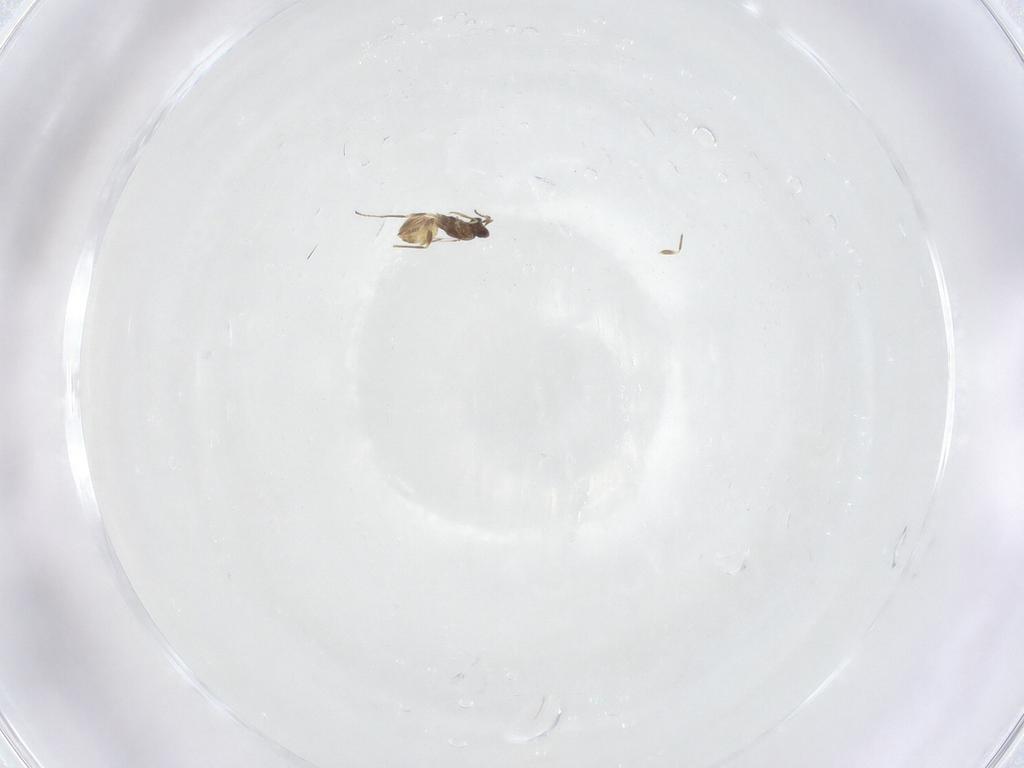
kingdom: Animalia
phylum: Arthropoda
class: Insecta
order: Hymenoptera
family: Mymaridae
